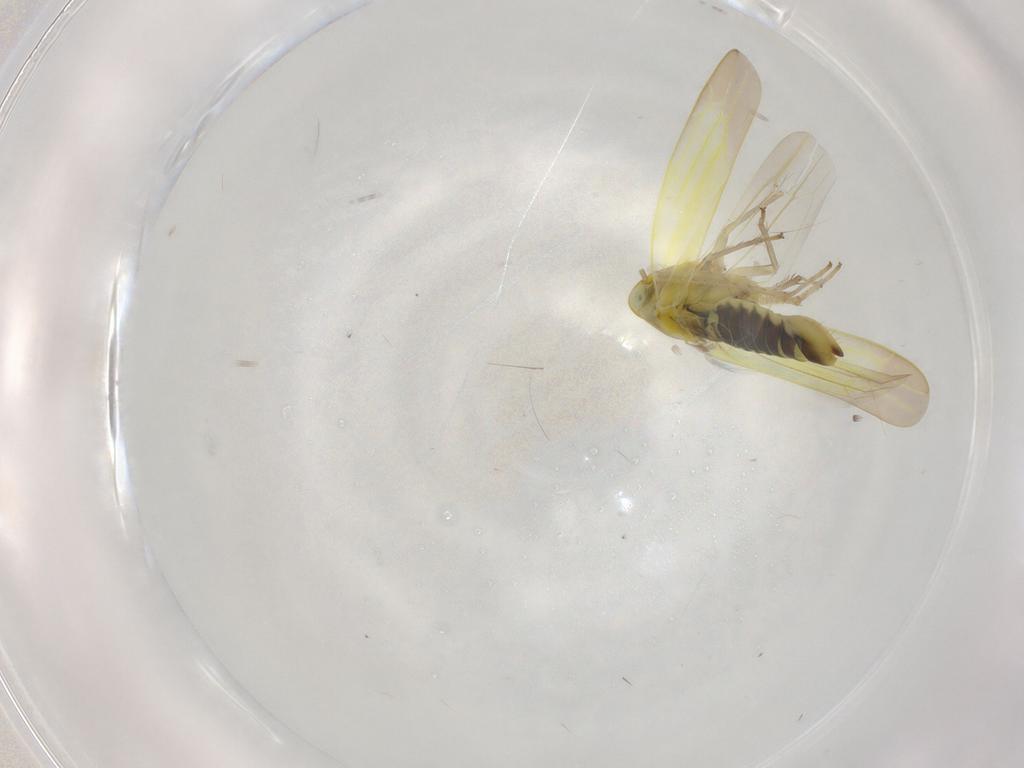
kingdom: Animalia
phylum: Arthropoda
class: Insecta
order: Hemiptera
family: Cicadellidae
